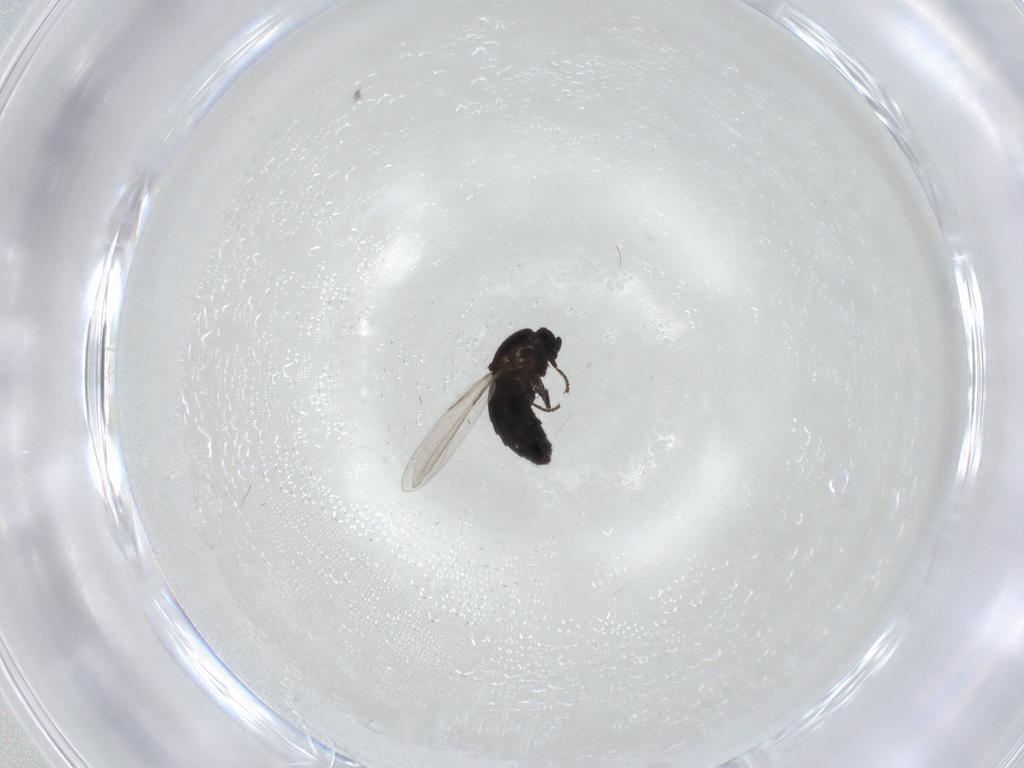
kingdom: Animalia
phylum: Arthropoda
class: Insecta
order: Diptera
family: Scatopsidae
